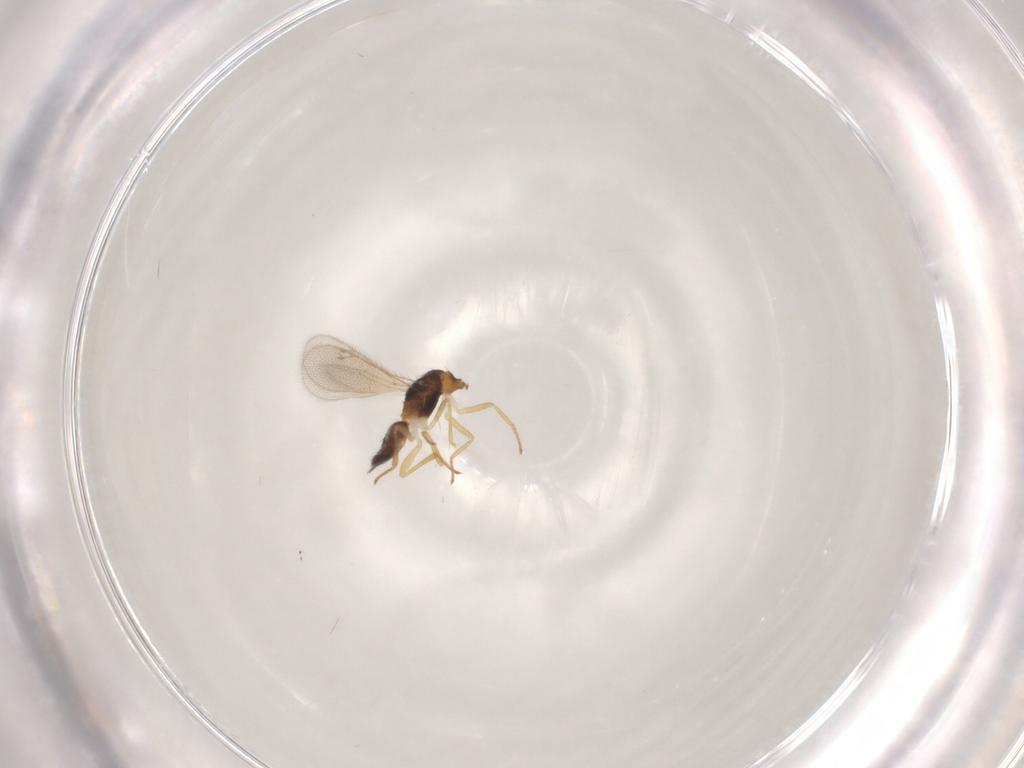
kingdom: Animalia
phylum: Arthropoda
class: Insecta
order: Hymenoptera
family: Eulophidae
